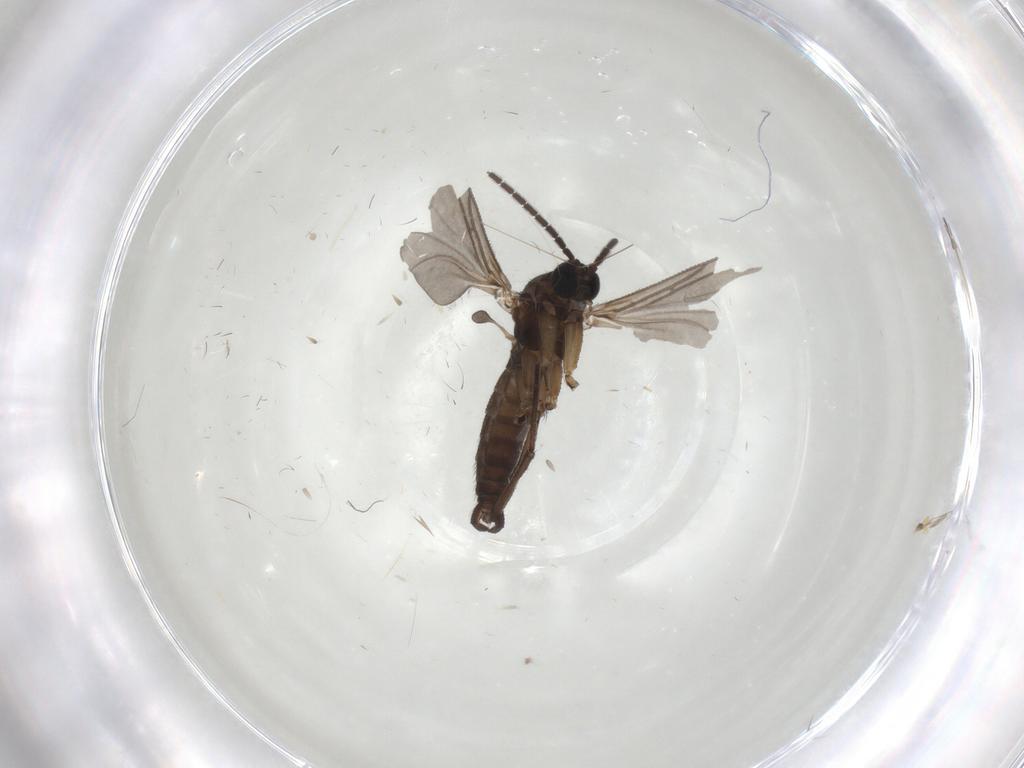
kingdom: Animalia
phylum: Arthropoda
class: Insecta
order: Diptera
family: Sciaridae
